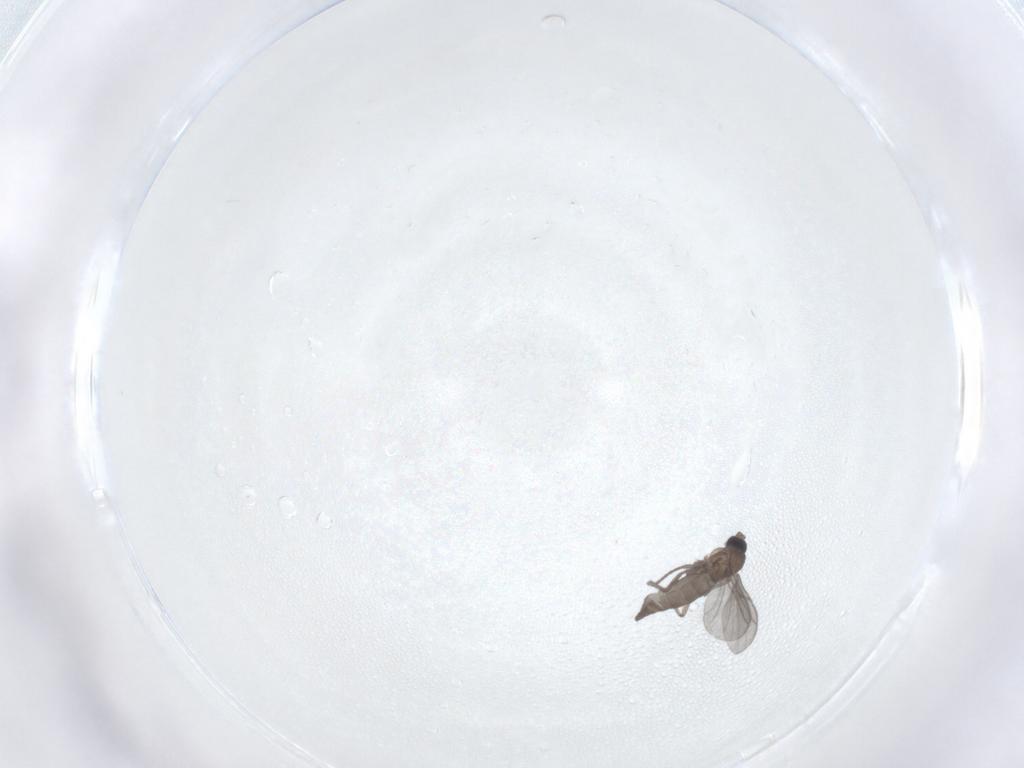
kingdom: Animalia
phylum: Arthropoda
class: Insecta
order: Diptera
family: Sciaridae
